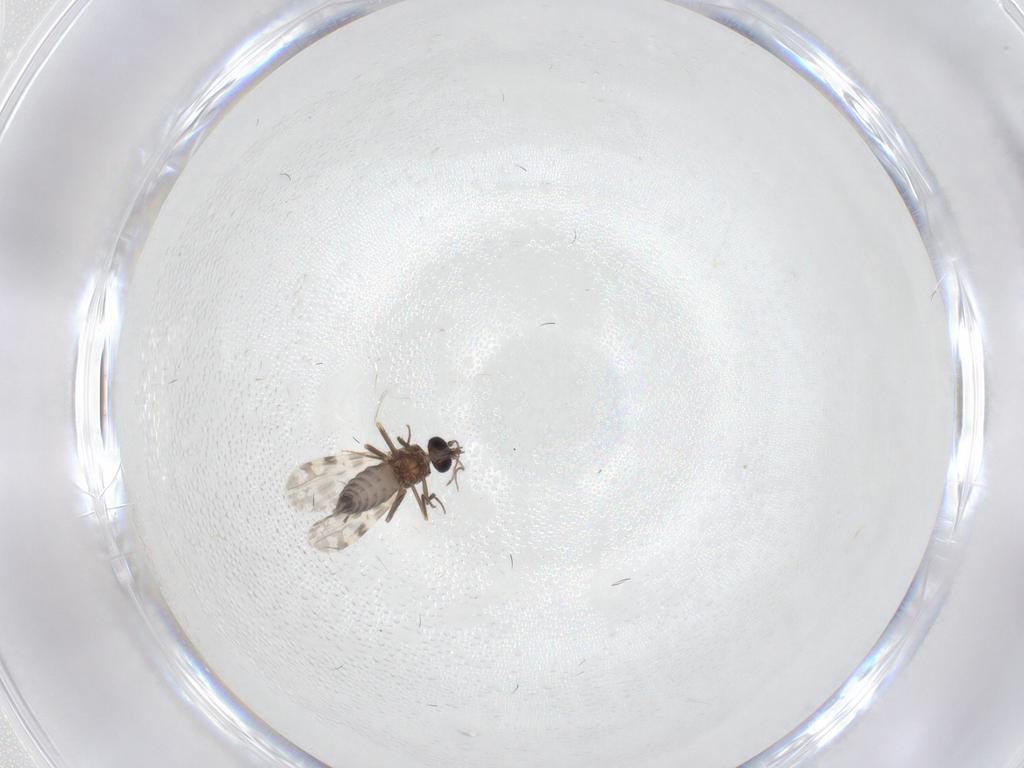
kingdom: Animalia
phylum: Arthropoda
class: Insecta
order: Diptera
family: Ceratopogonidae
